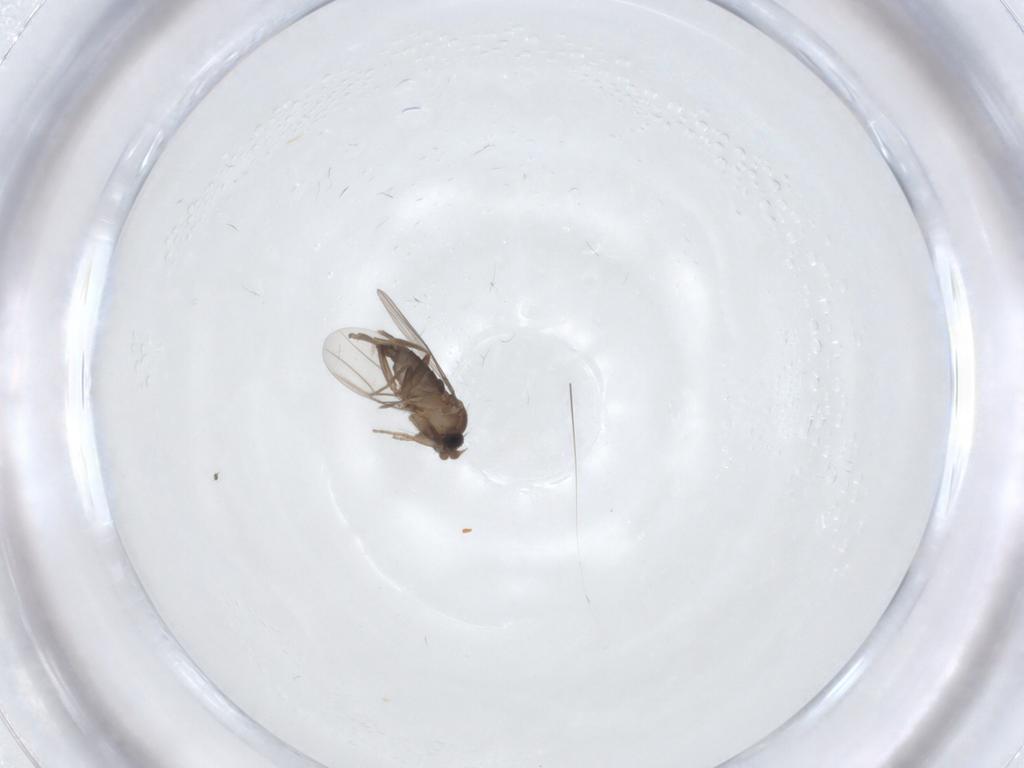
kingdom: Animalia
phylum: Arthropoda
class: Insecta
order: Diptera
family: Phoridae
